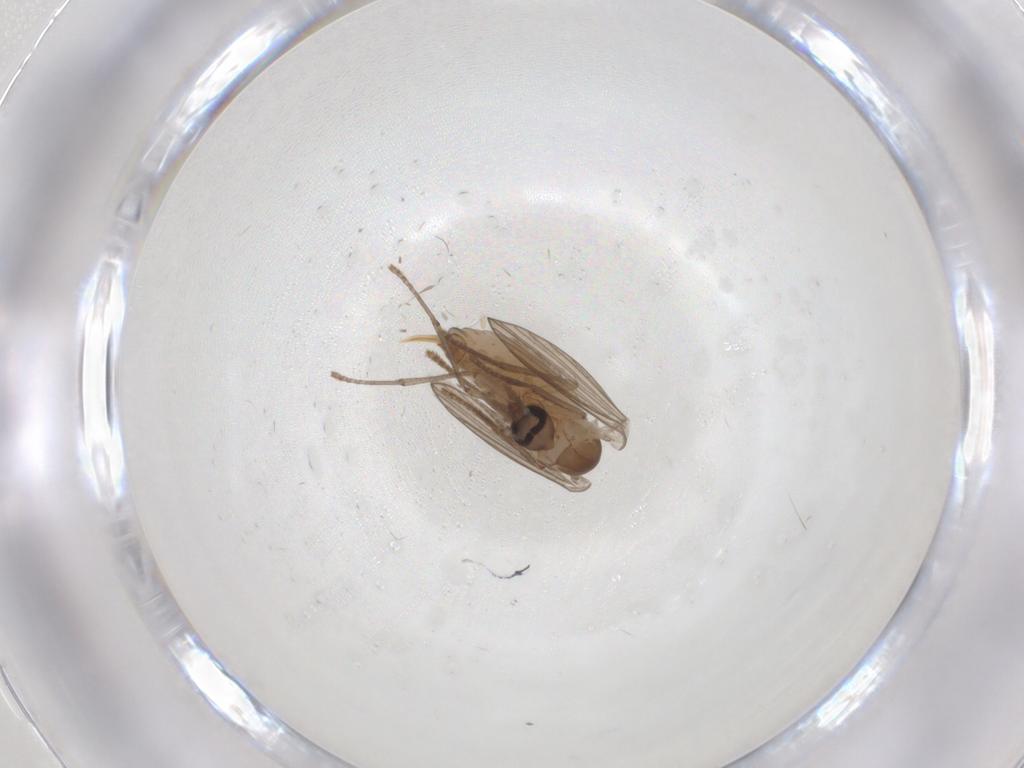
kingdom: Animalia
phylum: Arthropoda
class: Insecta
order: Diptera
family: Psychodidae
